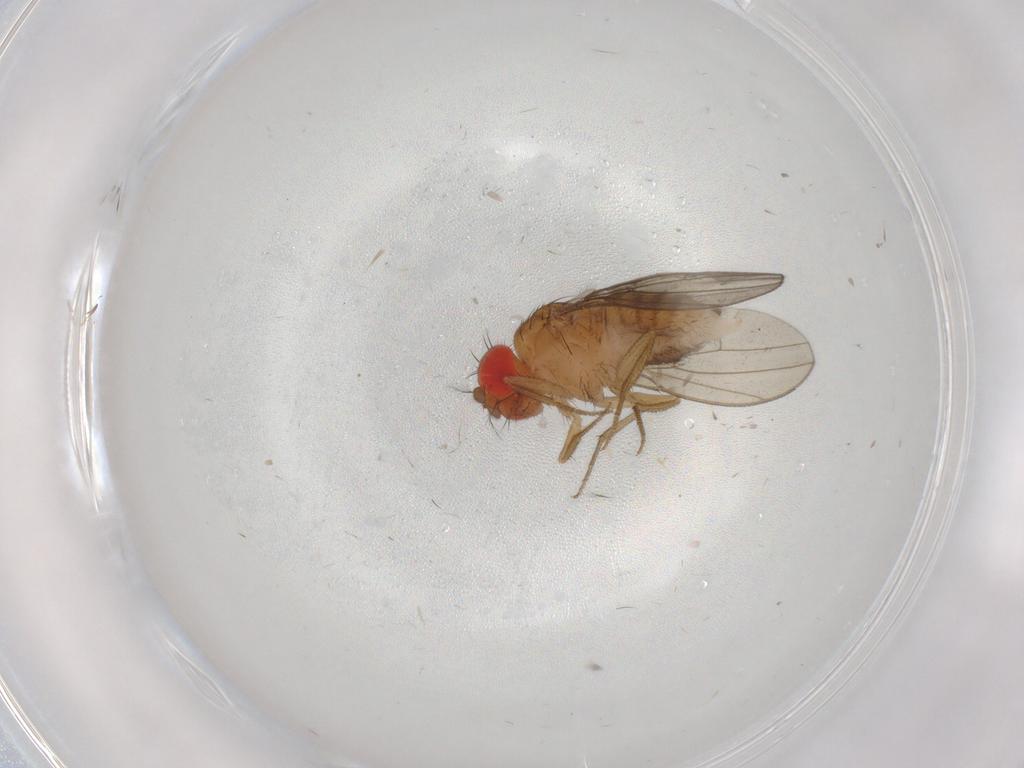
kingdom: Animalia
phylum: Arthropoda
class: Insecta
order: Diptera
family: Drosophilidae
